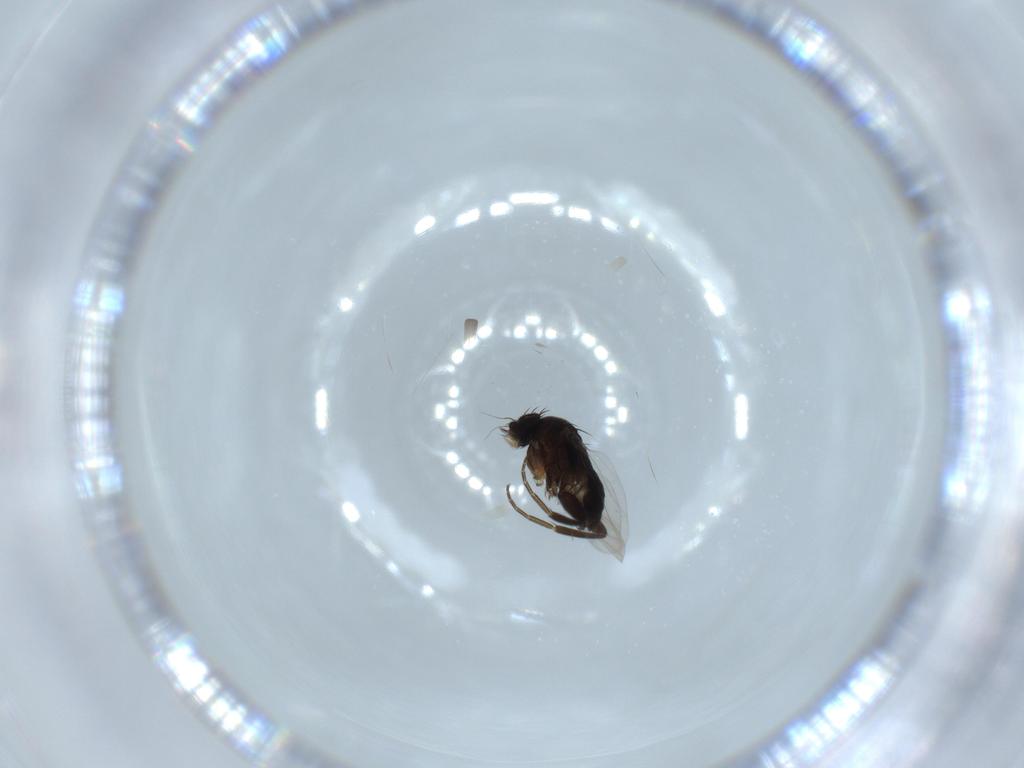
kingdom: Animalia
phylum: Arthropoda
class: Insecta
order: Diptera
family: Phoridae
